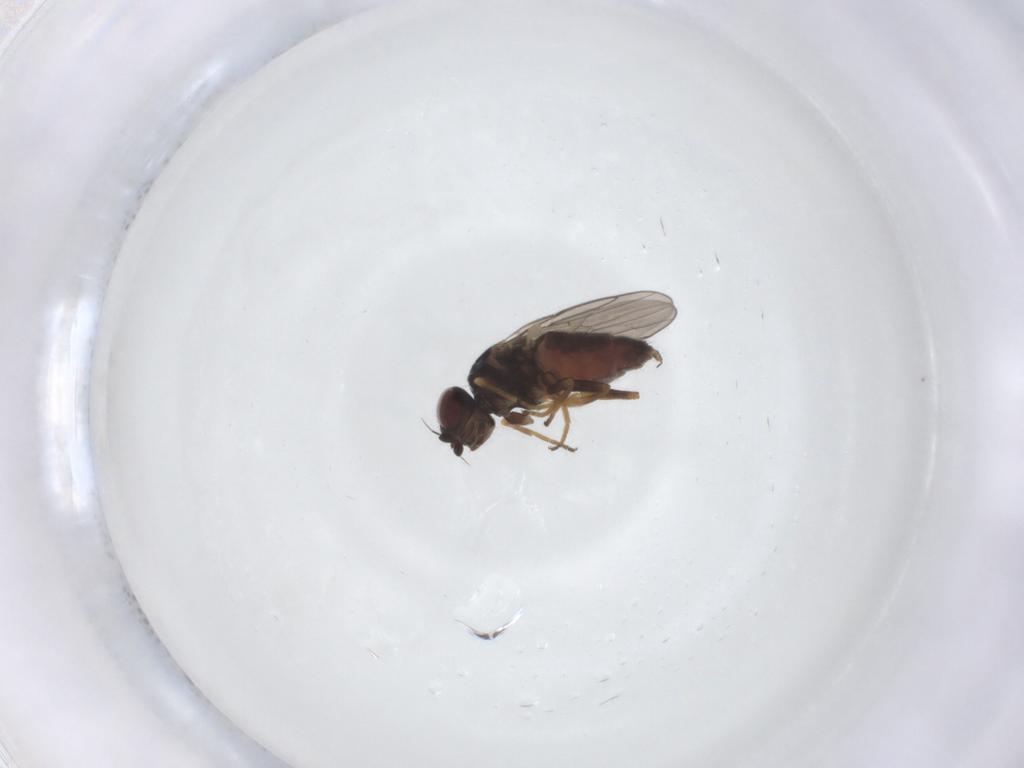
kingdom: Animalia
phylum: Arthropoda
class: Insecta
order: Diptera
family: Chloropidae
